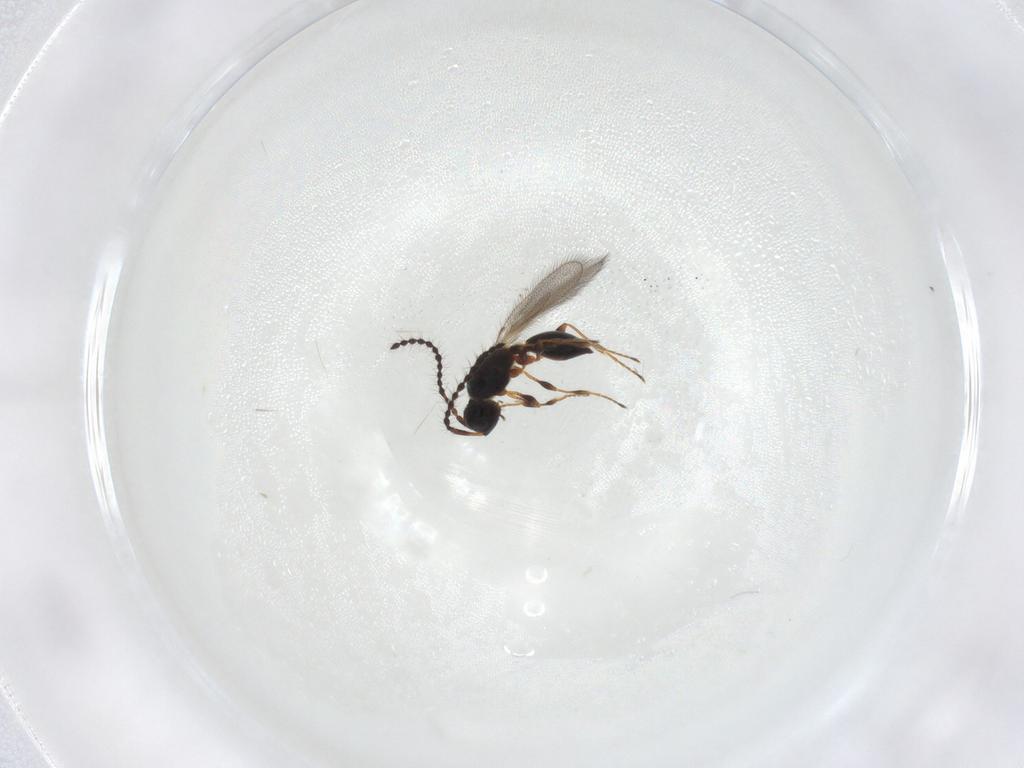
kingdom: Animalia
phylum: Arthropoda
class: Insecta
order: Hymenoptera
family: Diapriidae
